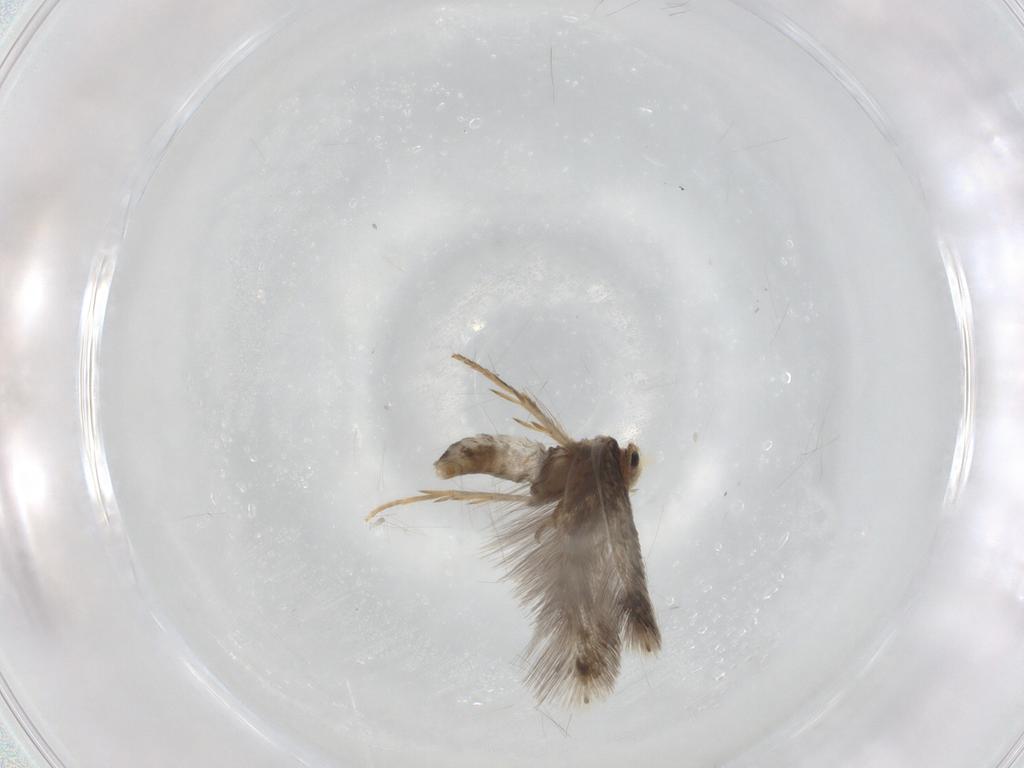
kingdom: Animalia
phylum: Arthropoda
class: Insecta
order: Lepidoptera
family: Nepticulidae
